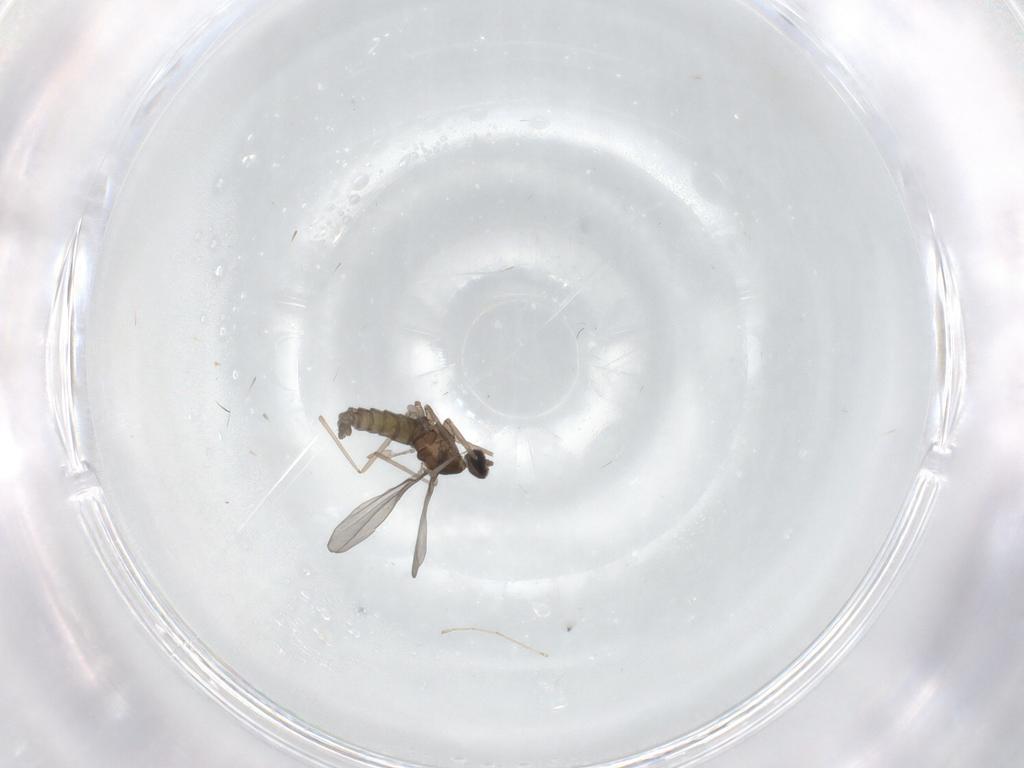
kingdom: Animalia
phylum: Arthropoda
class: Insecta
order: Diptera
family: Cecidomyiidae
